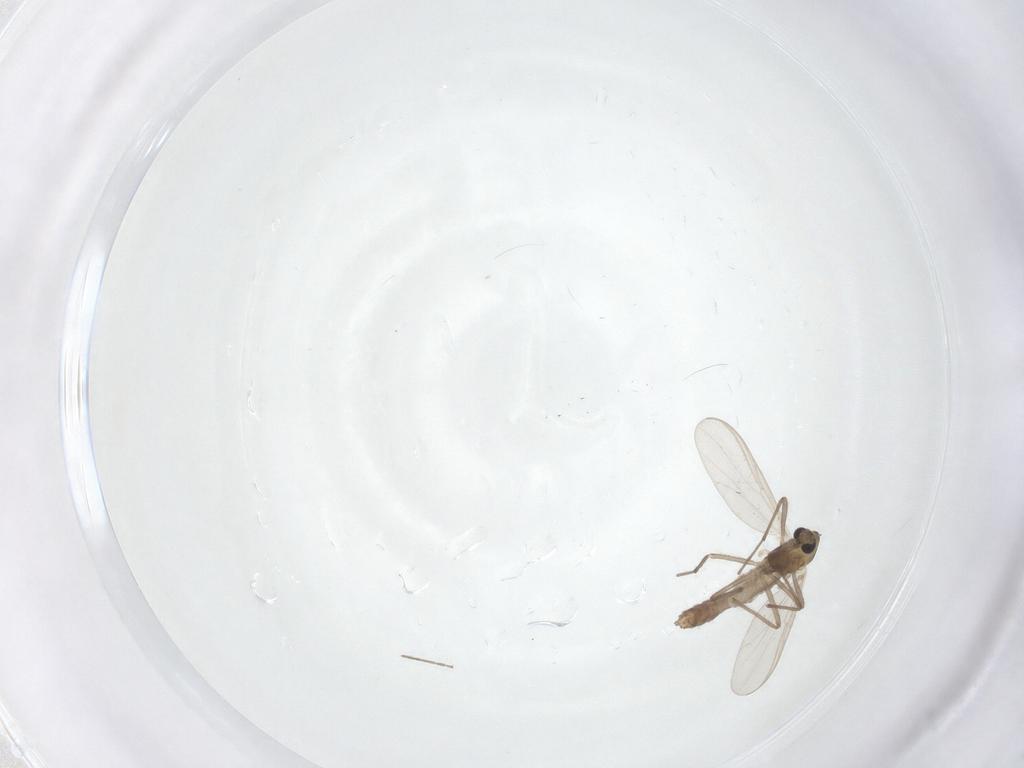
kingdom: Animalia
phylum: Arthropoda
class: Insecta
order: Diptera
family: Chironomidae
